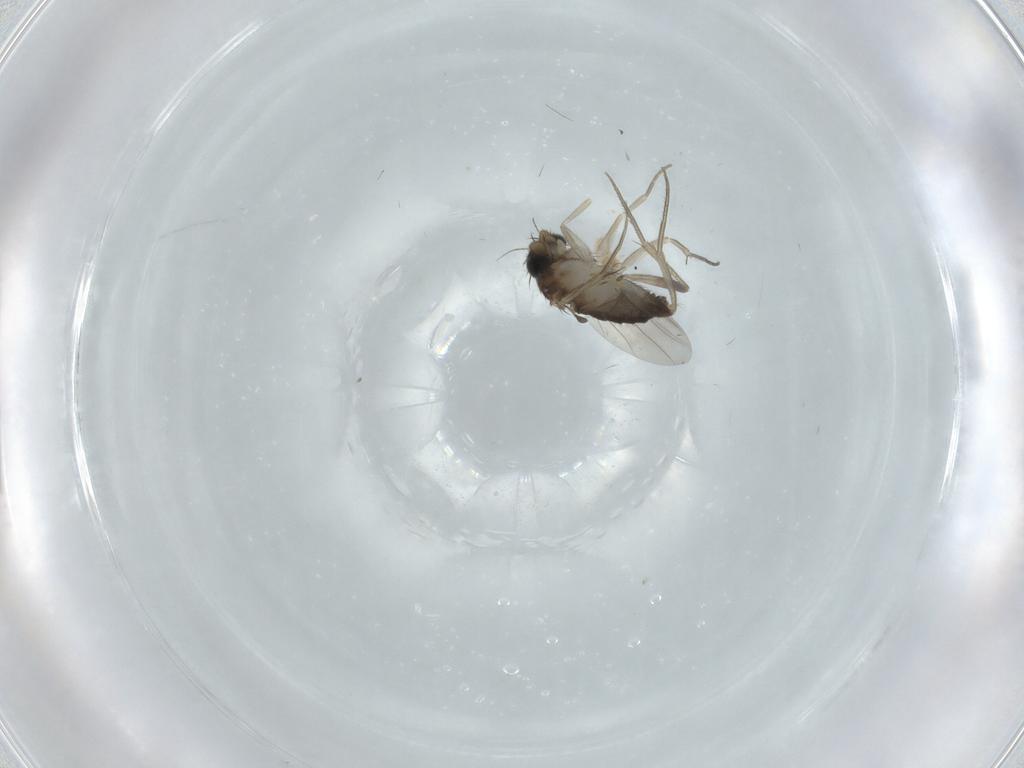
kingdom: Animalia
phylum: Arthropoda
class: Insecta
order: Diptera
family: Phoridae
